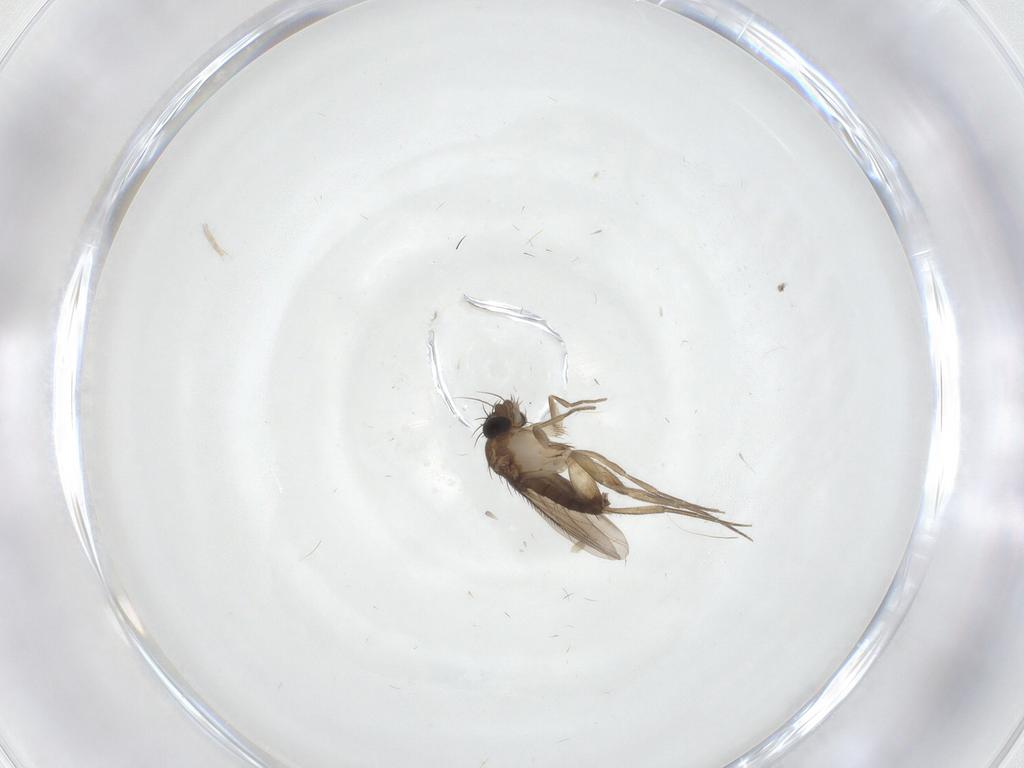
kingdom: Animalia
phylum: Arthropoda
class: Insecta
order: Diptera
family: Phoridae
